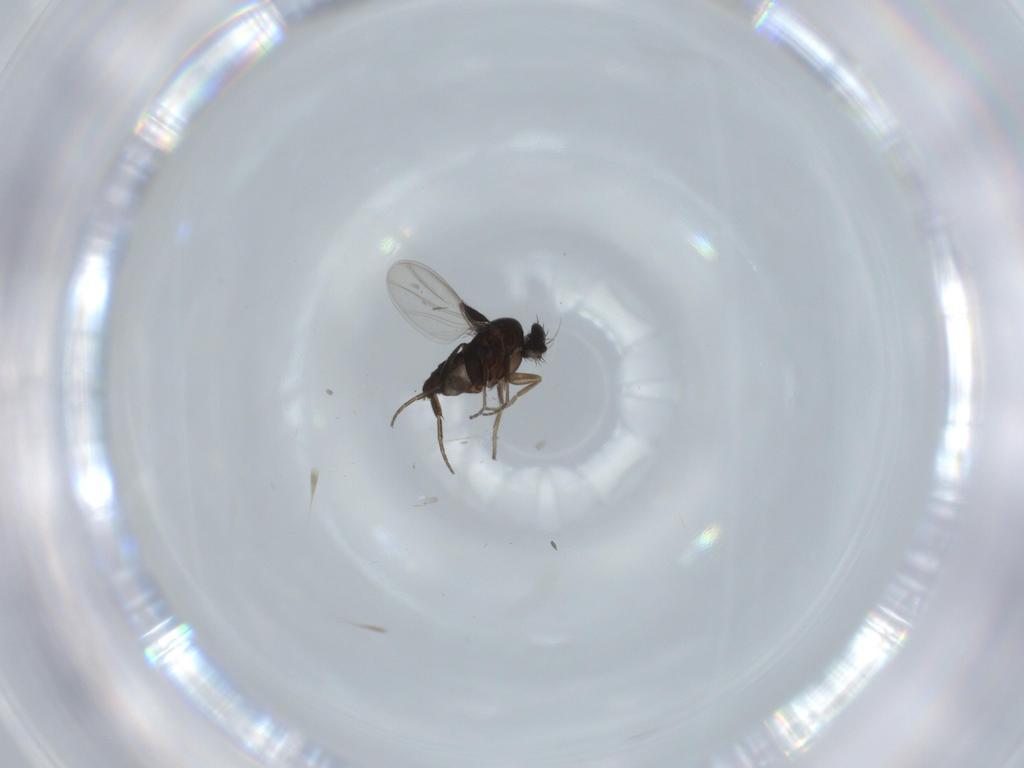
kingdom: Animalia
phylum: Arthropoda
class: Insecta
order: Diptera
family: Phoridae
